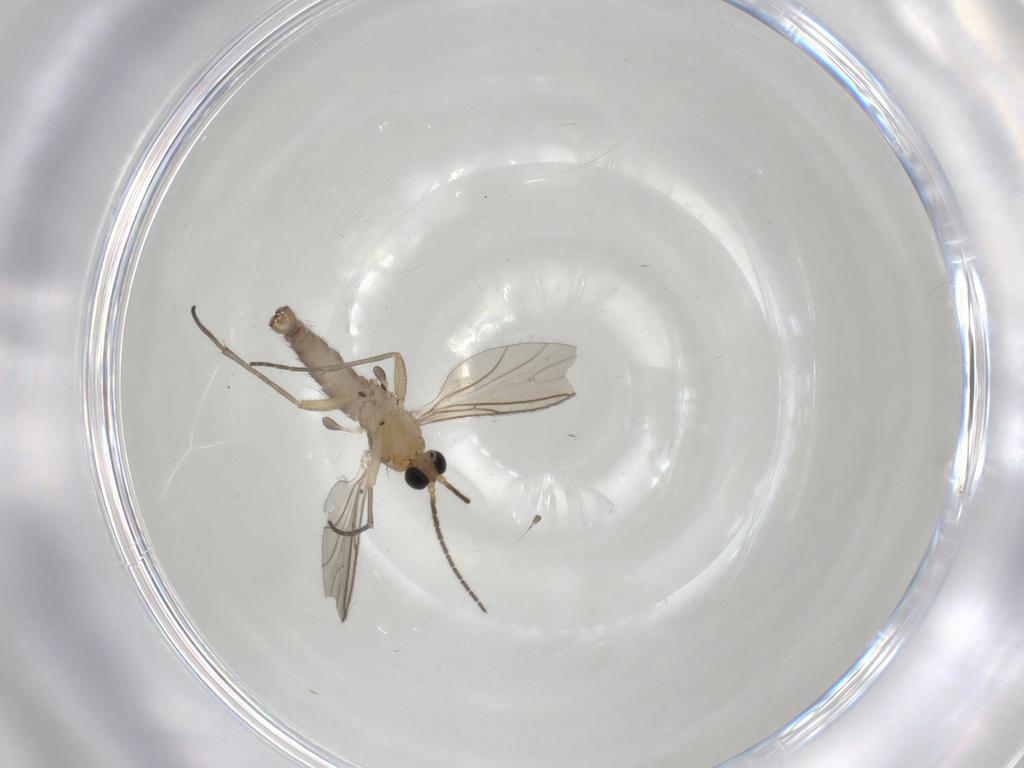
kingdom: Animalia
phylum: Arthropoda
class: Insecta
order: Diptera
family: Sciaridae
